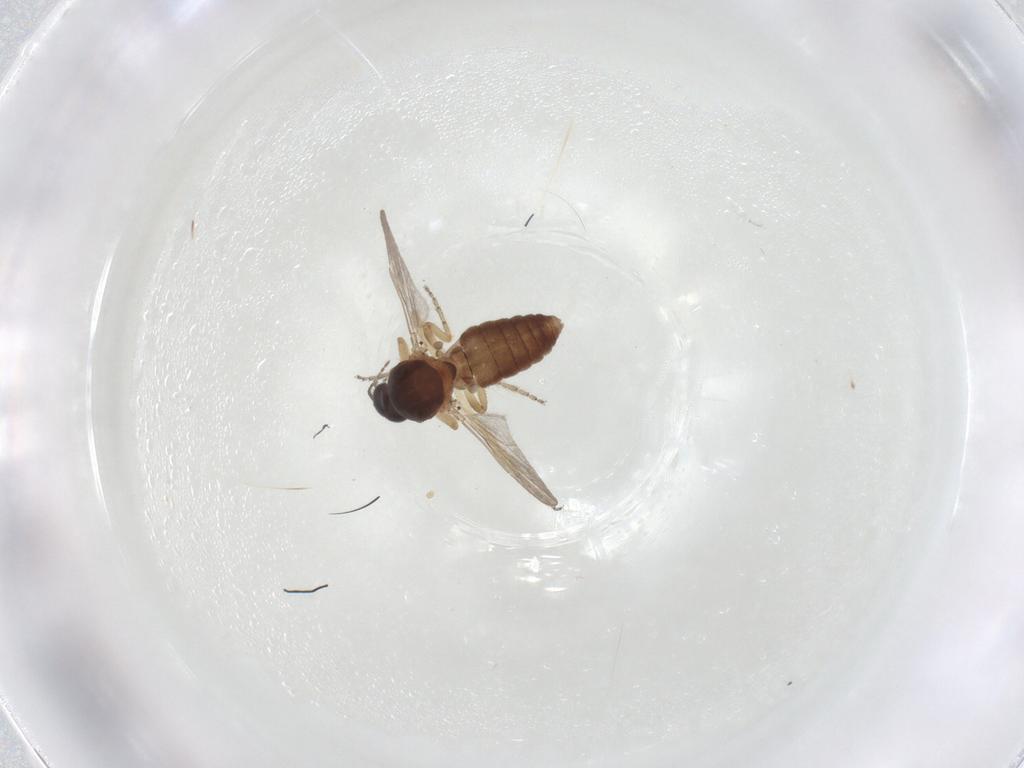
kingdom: Animalia
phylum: Arthropoda
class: Insecta
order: Diptera
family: Ceratopogonidae
